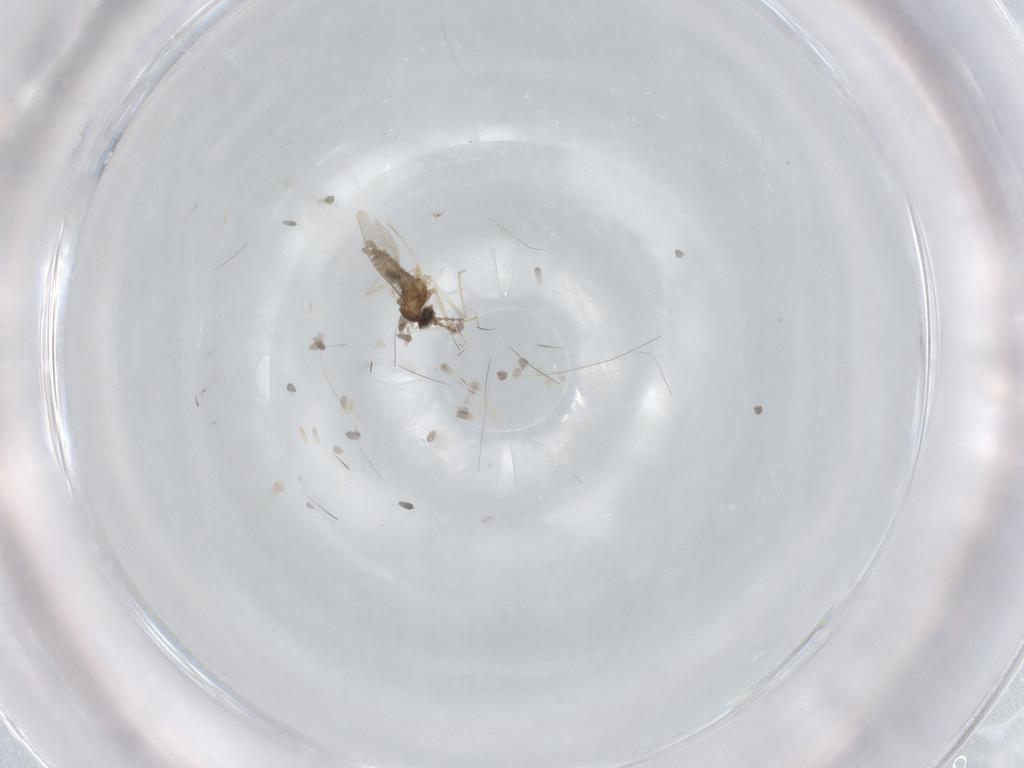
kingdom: Animalia
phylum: Arthropoda
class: Insecta
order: Diptera
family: Cecidomyiidae
